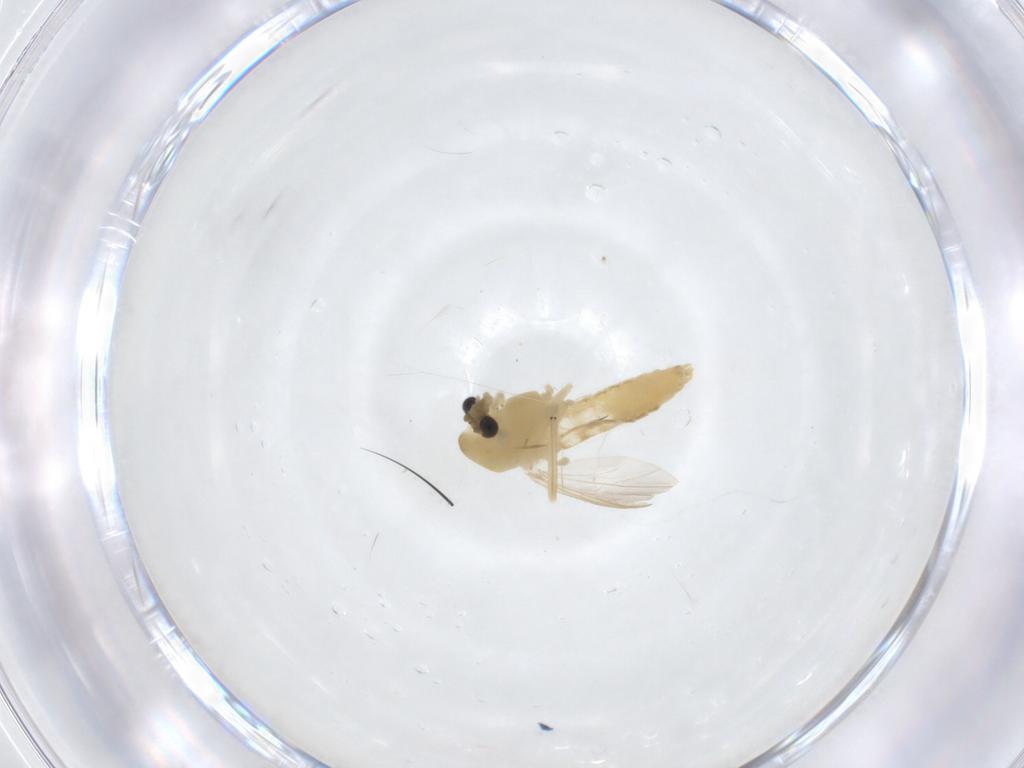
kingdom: Animalia
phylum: Arthropoda
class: Insecta
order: Diptera
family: Chironomidae
